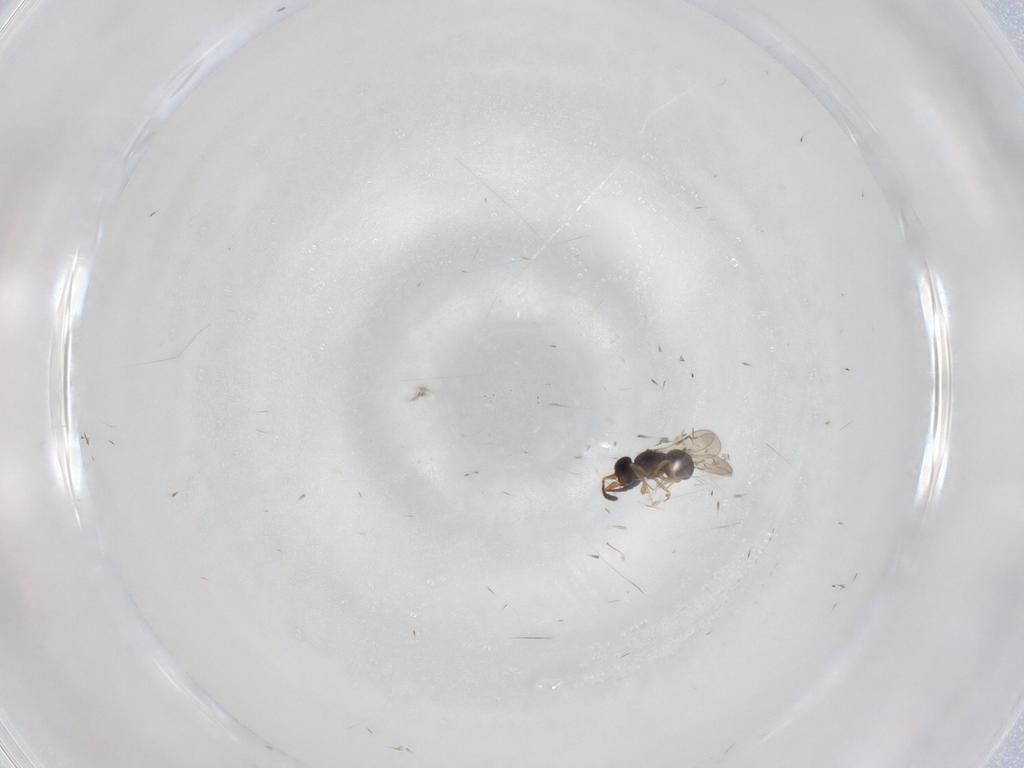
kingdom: Animalia
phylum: Arthropoda
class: Insecta
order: Hymenoptera
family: Ceraphronidae
